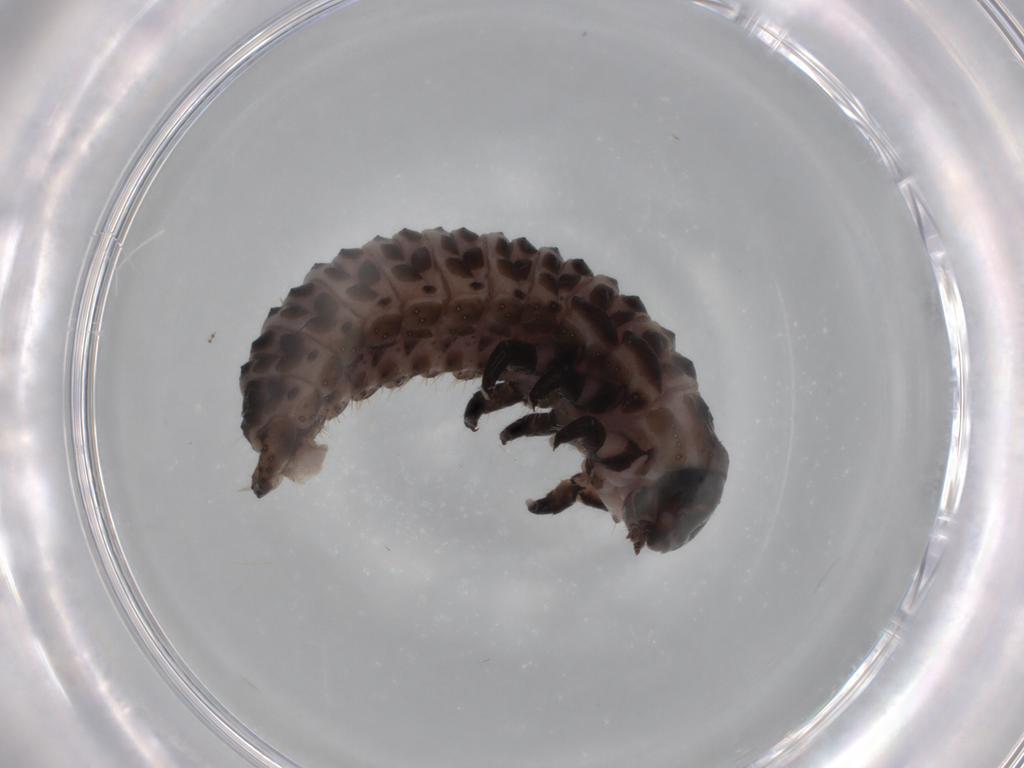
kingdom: Animalia
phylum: Arthropoda
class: Insecta
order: Coleoptera
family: Chrysomelidae
